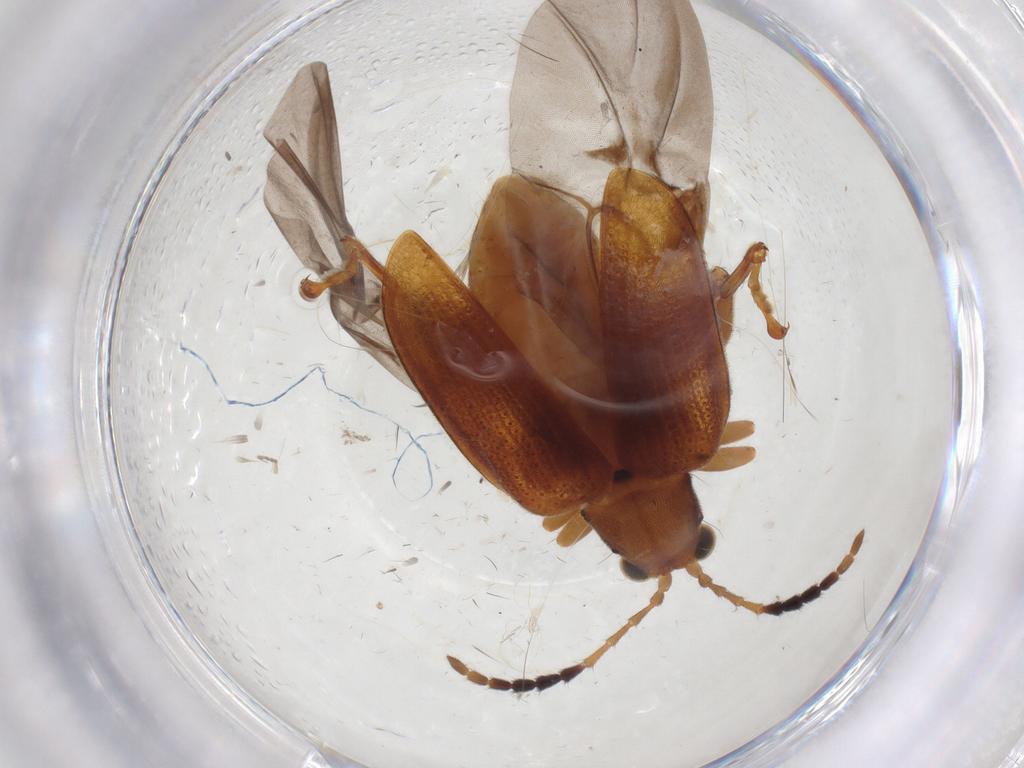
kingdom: Animalia
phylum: Arthropoda
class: Insecta
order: Coleoptera
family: Chrysomelidae
